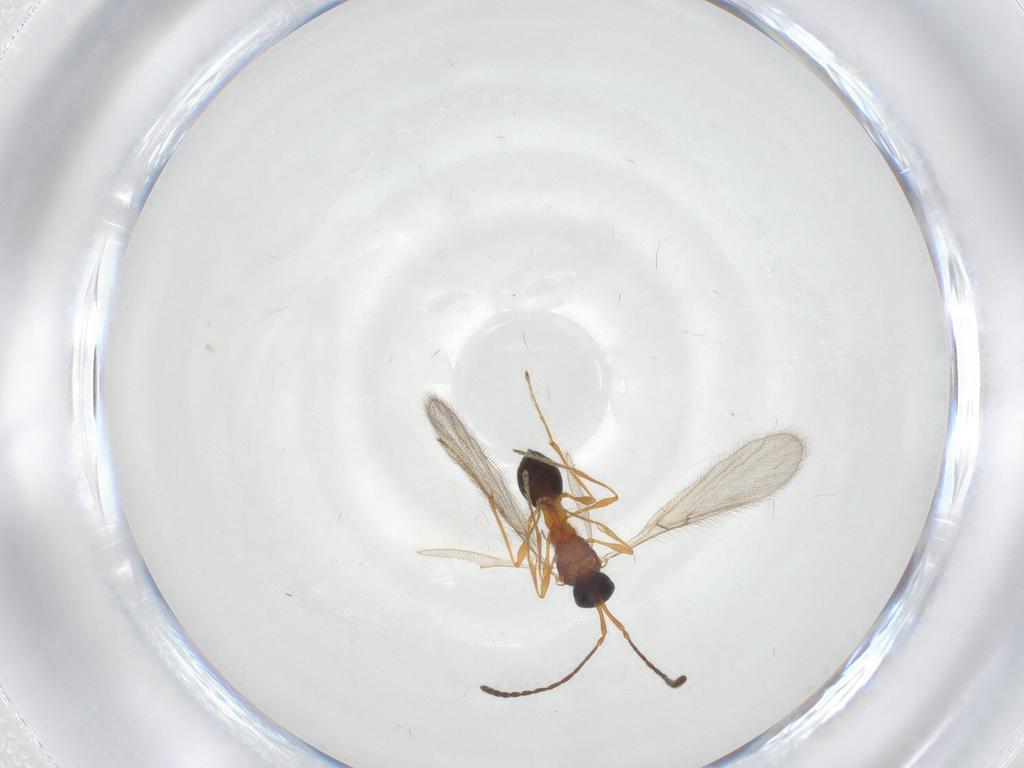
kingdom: Animalia
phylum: Arthropoda
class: Insecta
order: Hymenoptera
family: Diapriidae
